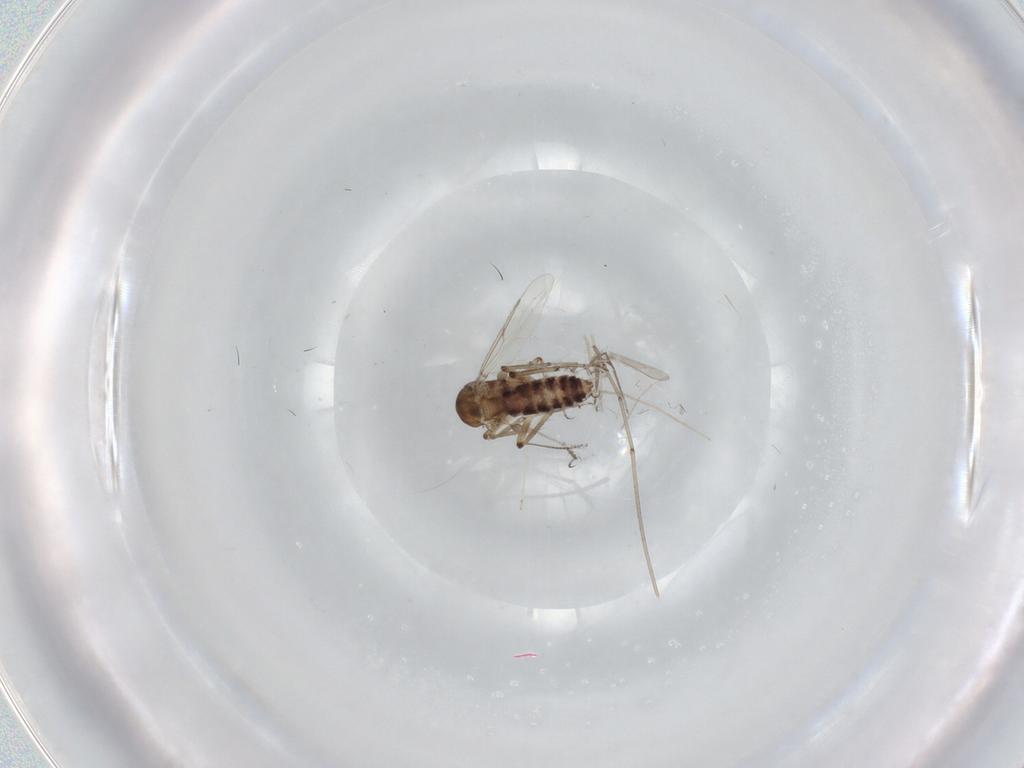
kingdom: Animalia
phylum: Arthropoda
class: Insecta
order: Diptera
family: Ceratopogonidae
